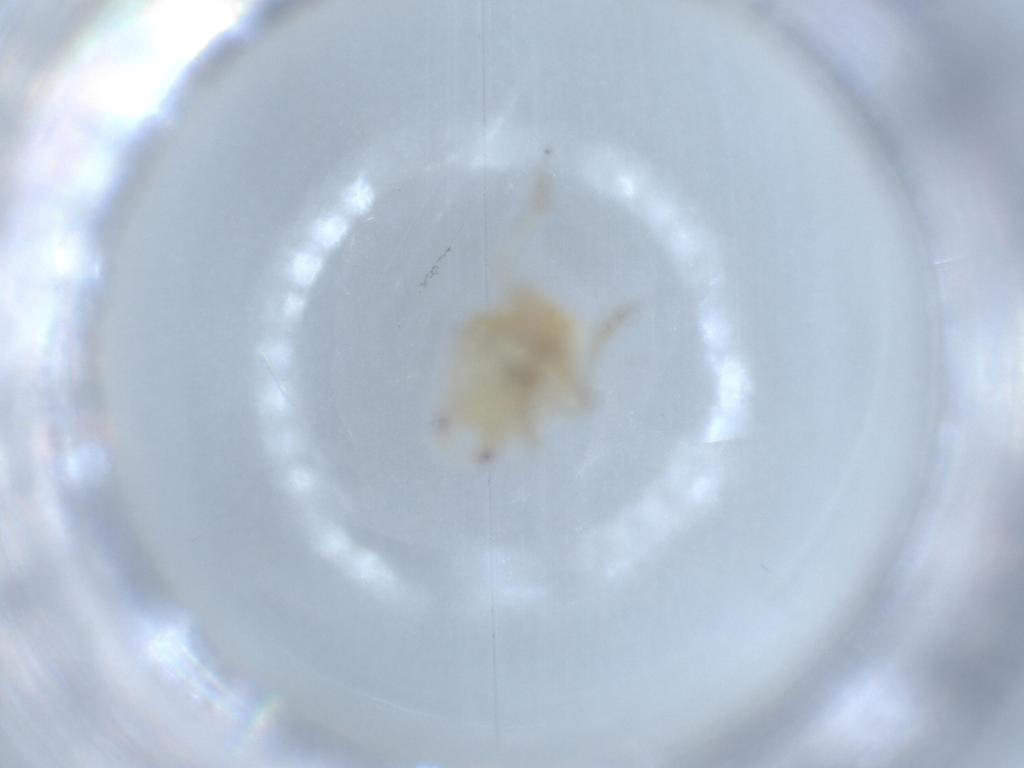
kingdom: Animalia
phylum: Arthropoda
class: Insecta
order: Hemiptera
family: Flatidae
